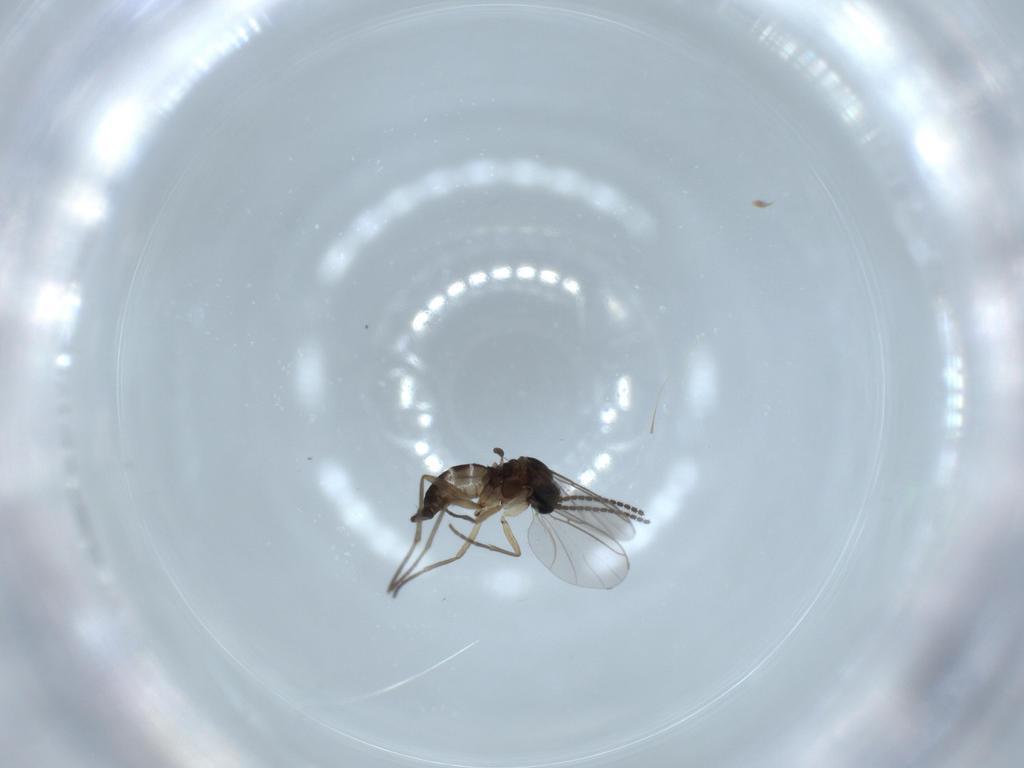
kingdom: Animalia
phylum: Arthropoda
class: Insecta
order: Diptera
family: Sciaridae
